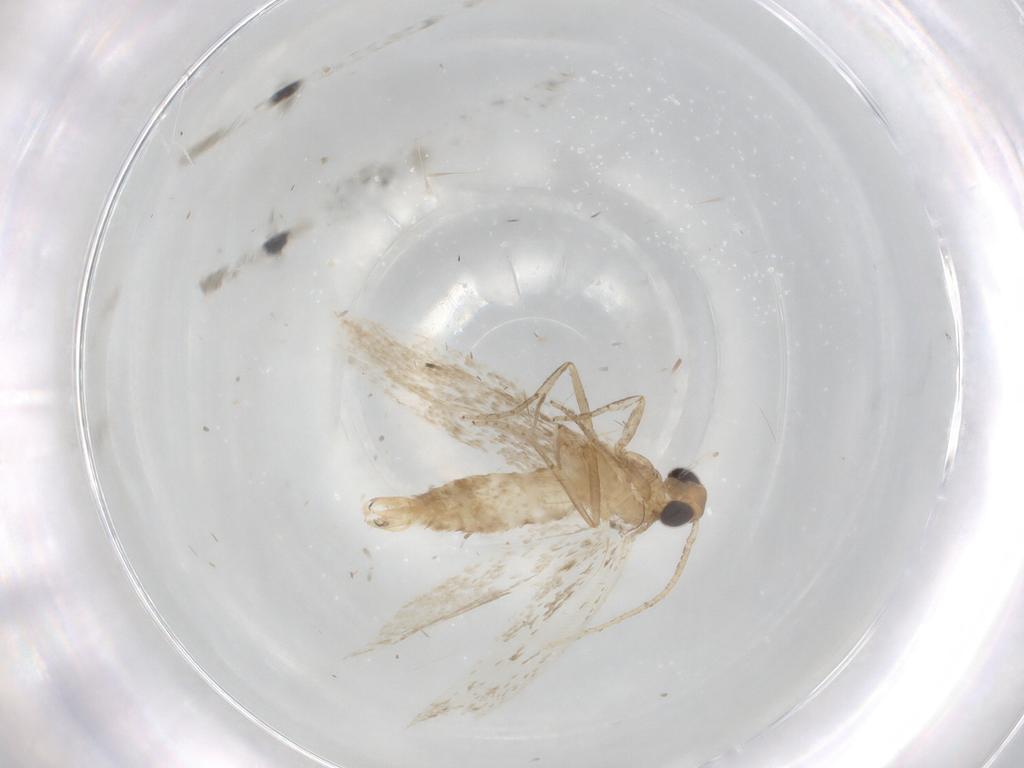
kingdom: Animalia
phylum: Arthropoda
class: Insecta
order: Lepidoptera
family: Gelechiidae
